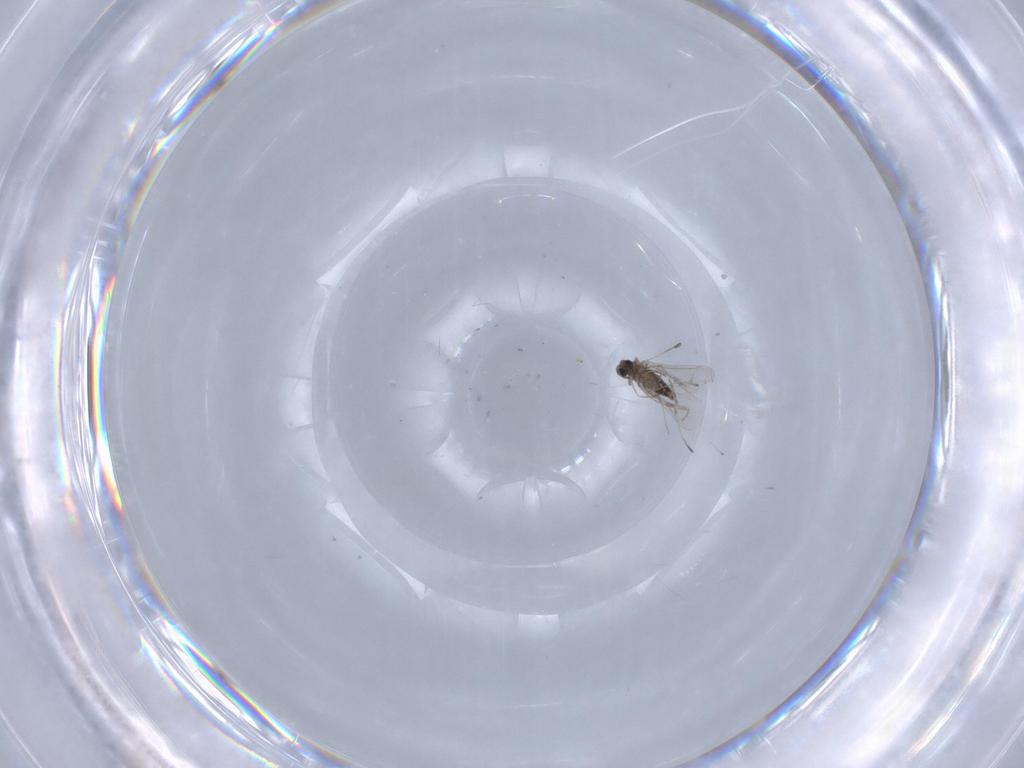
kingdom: Animalia
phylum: Arthropoda
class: Insecta
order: Diptera
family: Cecidomyiidae
